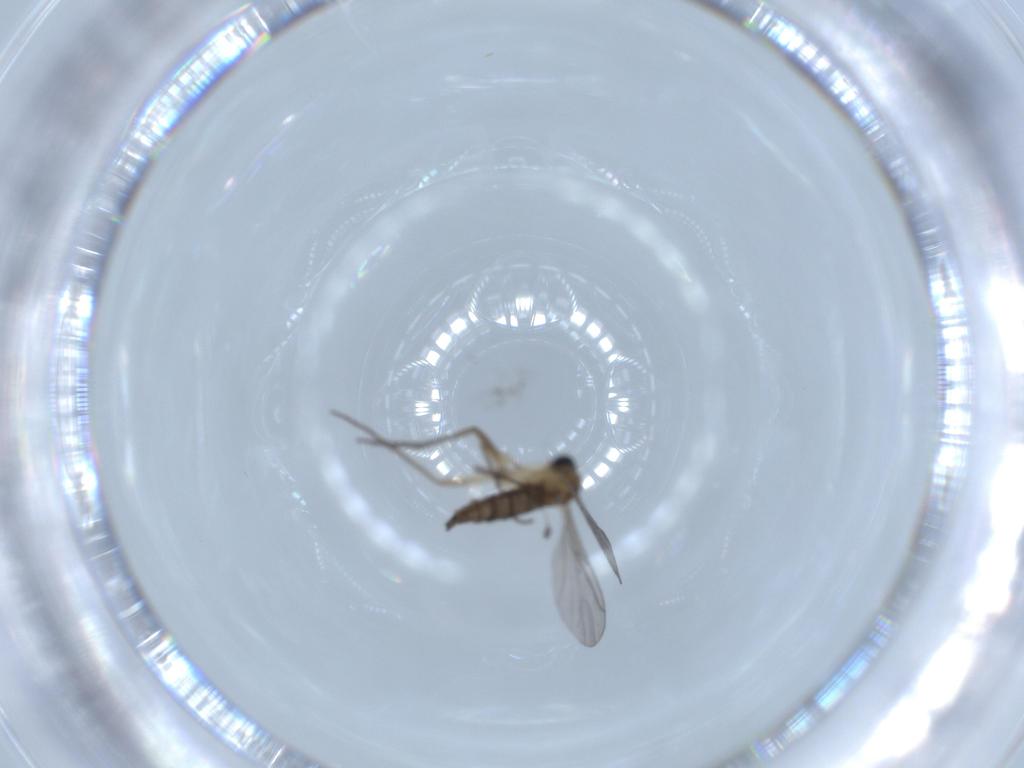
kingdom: Animalia
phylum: Arthropoda
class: Insecta
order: Diptera
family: Sciaridae
